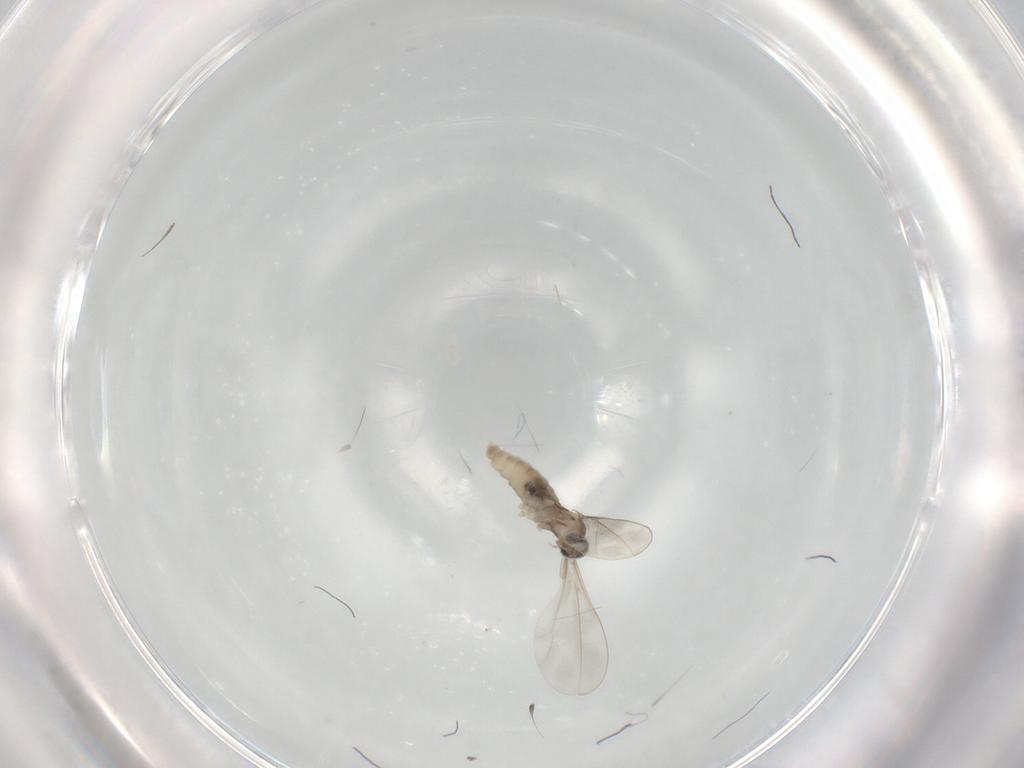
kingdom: Animalia
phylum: Arthropoda
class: Insecta
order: Diptera
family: Cecidomyiidae
